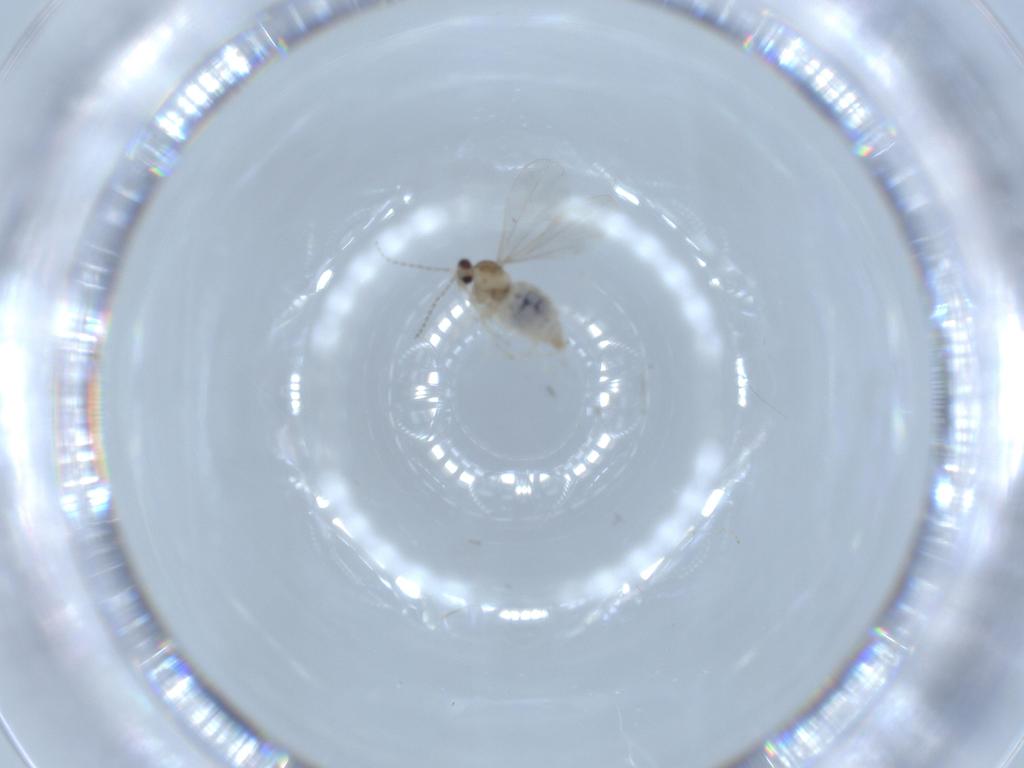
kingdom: Animalia
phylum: Arthropoda
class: Insecta
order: Diptera
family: Cecidomyiidae
